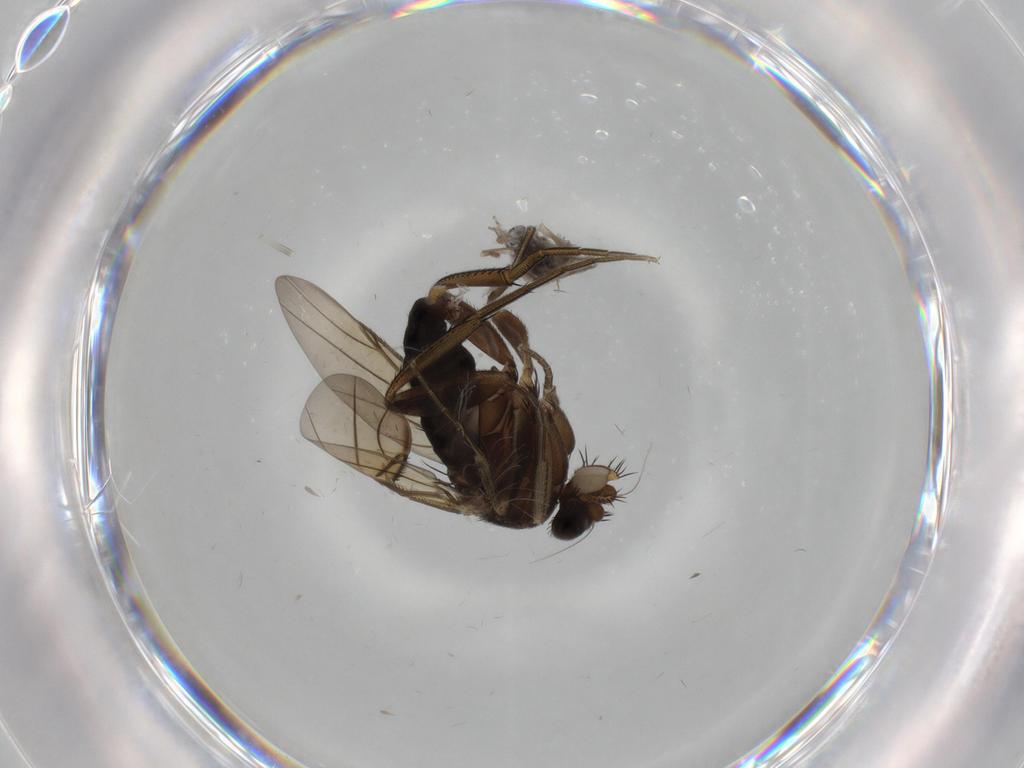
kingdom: Animalia
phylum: Arthropoda
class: Insecta
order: Diptera
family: Phoridae
